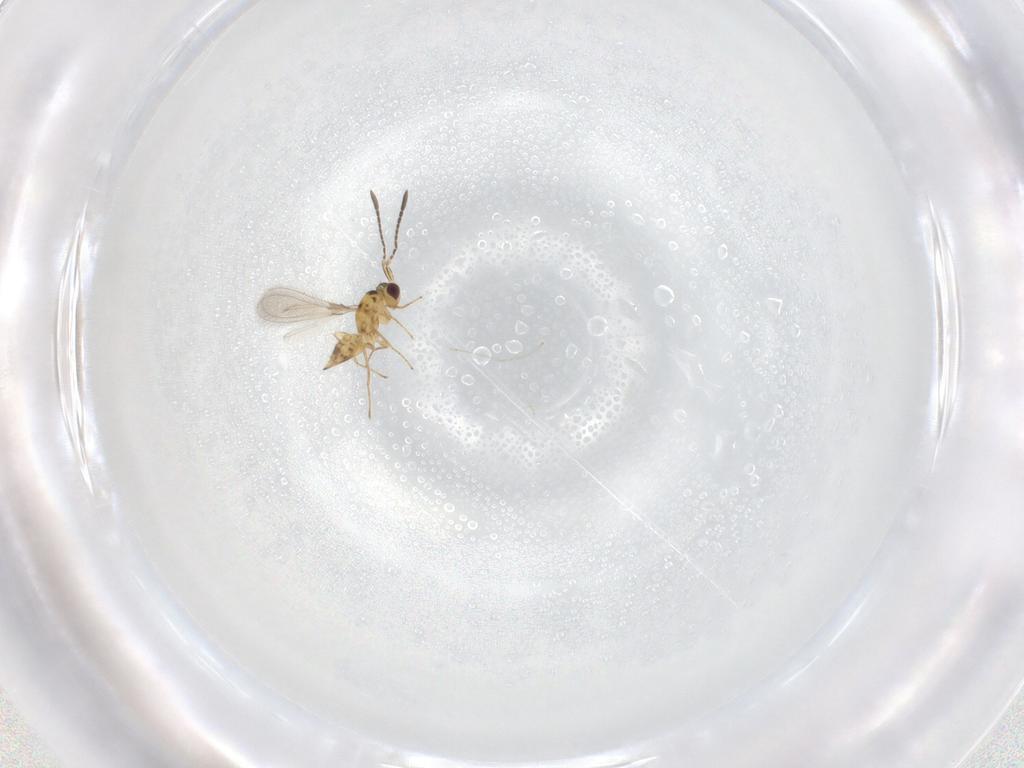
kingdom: Animalia
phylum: Arthropoda
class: Insecta
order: Hymenoptera
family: Mymaridae
